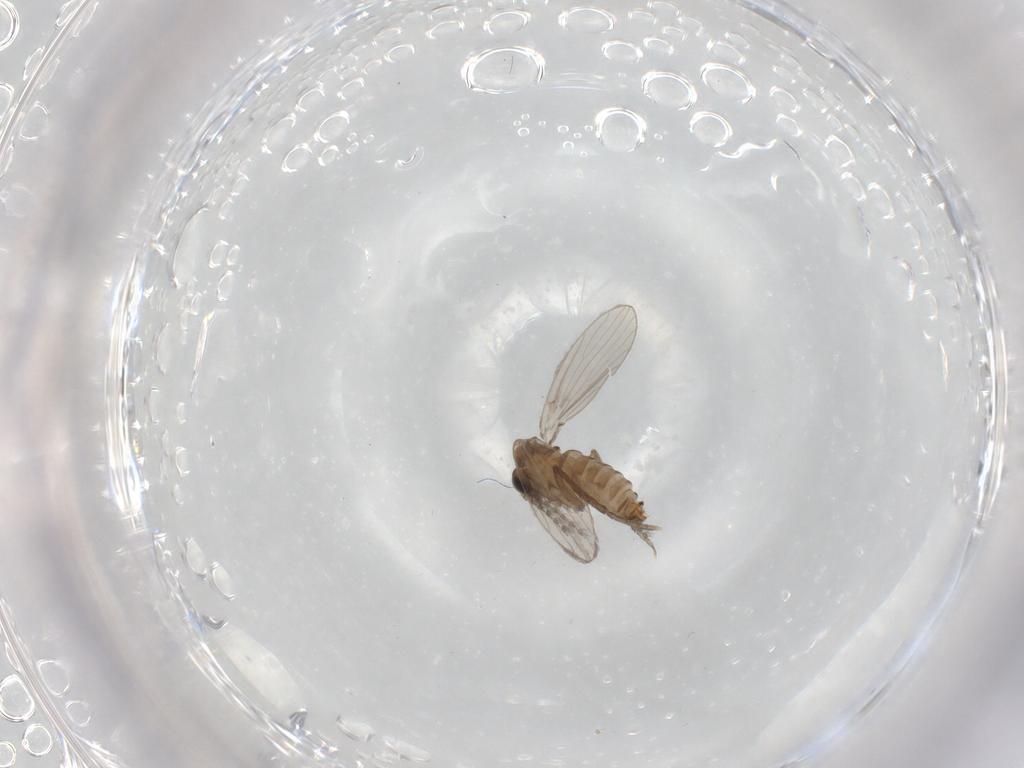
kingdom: Animalia
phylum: Arthropoda
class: Insecta
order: Diptera
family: Psychodidae
